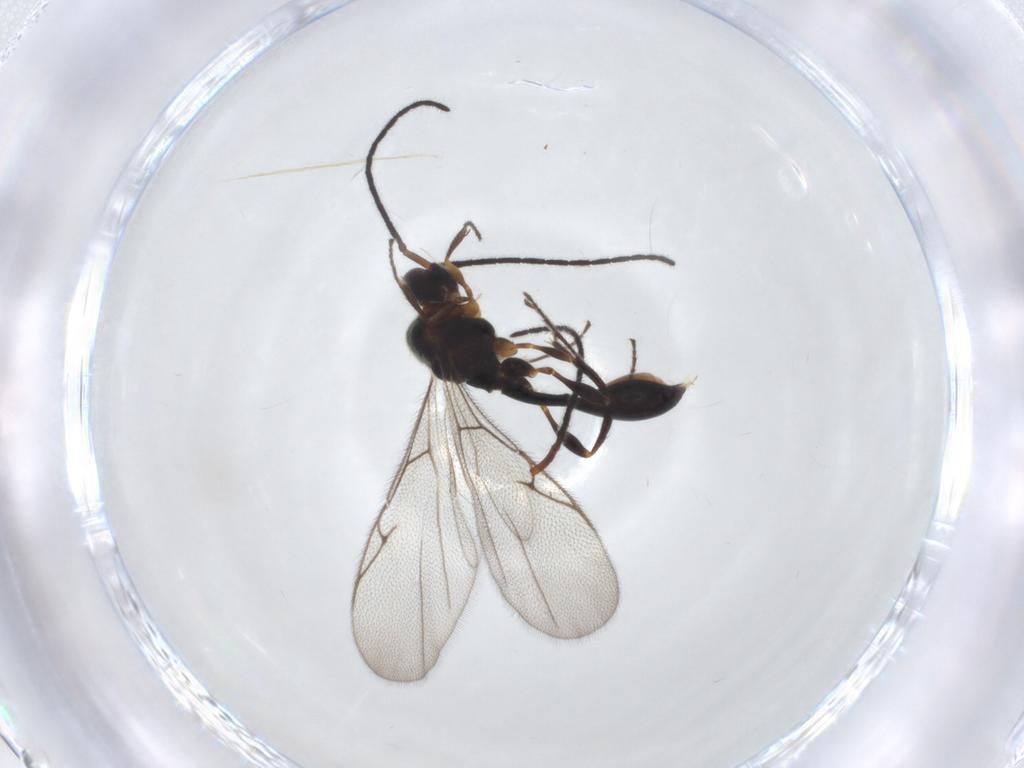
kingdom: Animalia
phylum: Arthropoda
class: Insecta
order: Hymenoptera
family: Diapriidae
